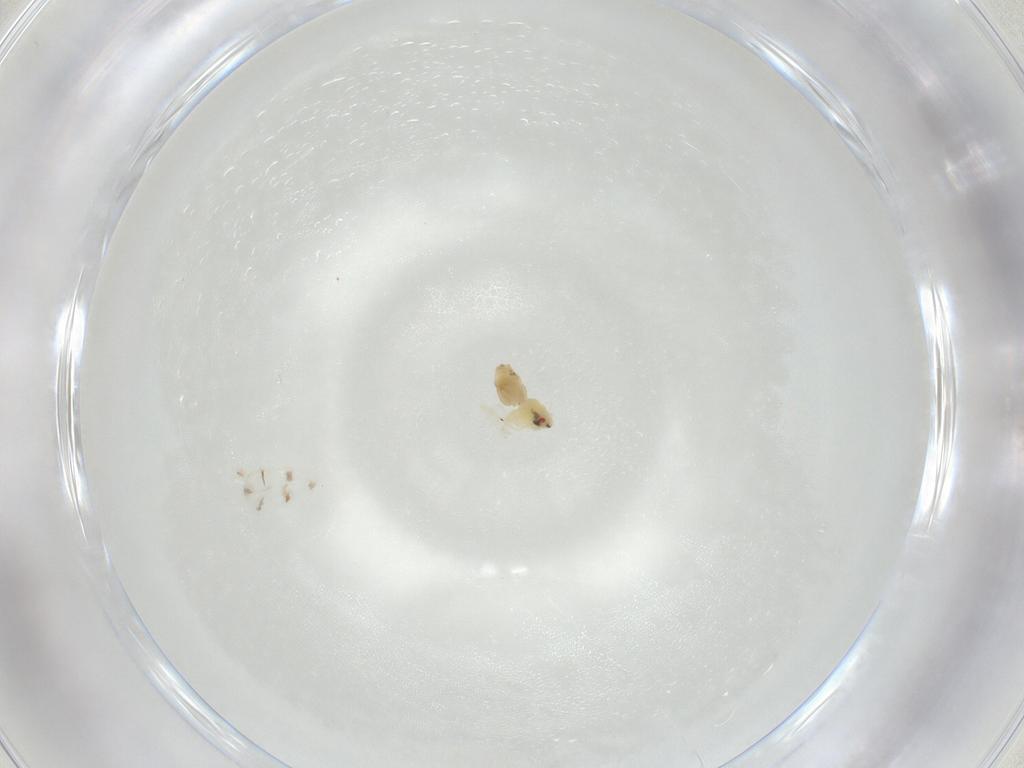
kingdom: Animalia
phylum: Arthropoda
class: Insecta
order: Hemiptera
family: Aleyrodidae
